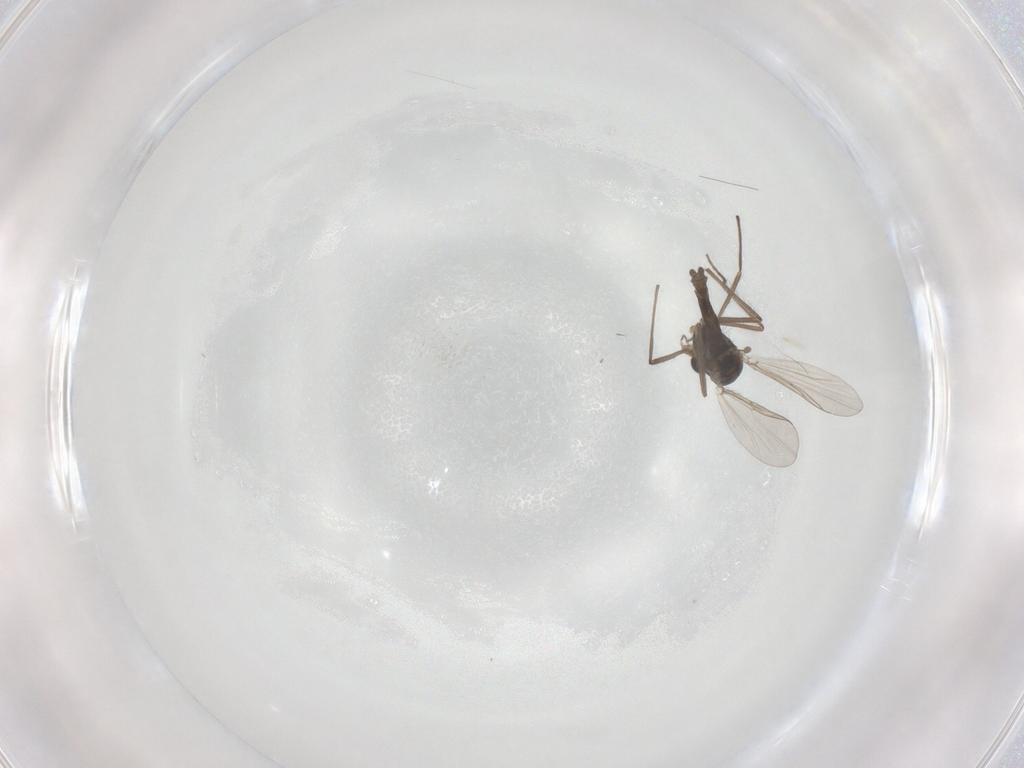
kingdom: Animalia
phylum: Arthropoda
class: Insecta
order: Diptera
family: Chironomidae
